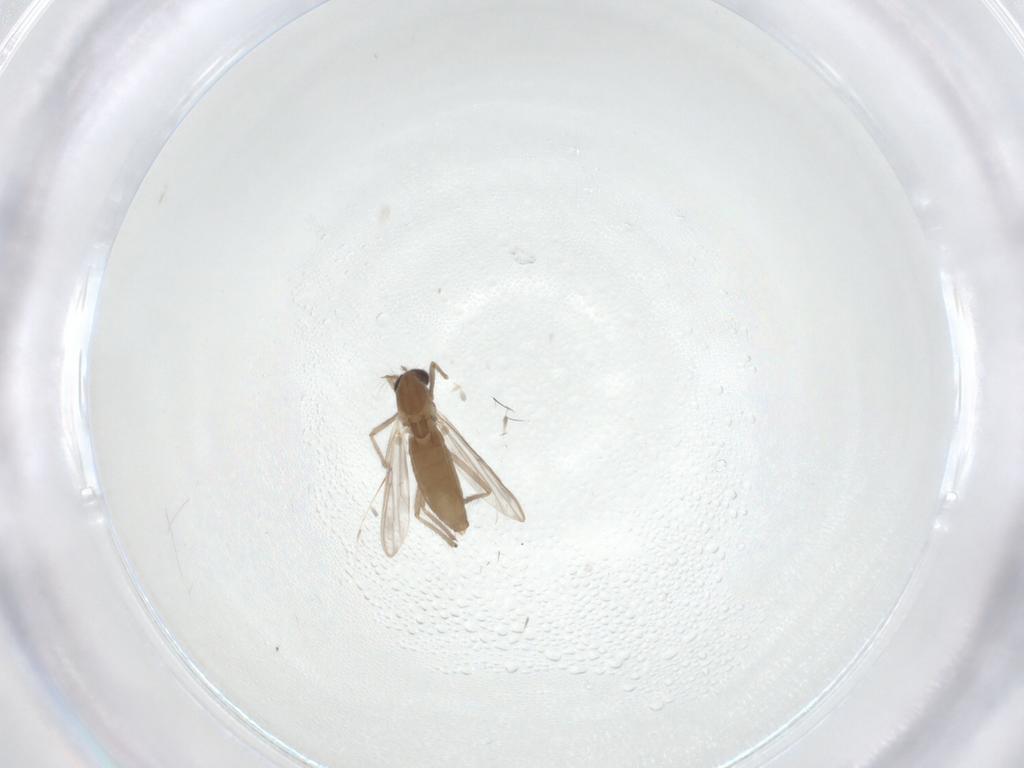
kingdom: Animalia
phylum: Arthropoda
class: Insecta
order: Diptera
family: Chironomidae
